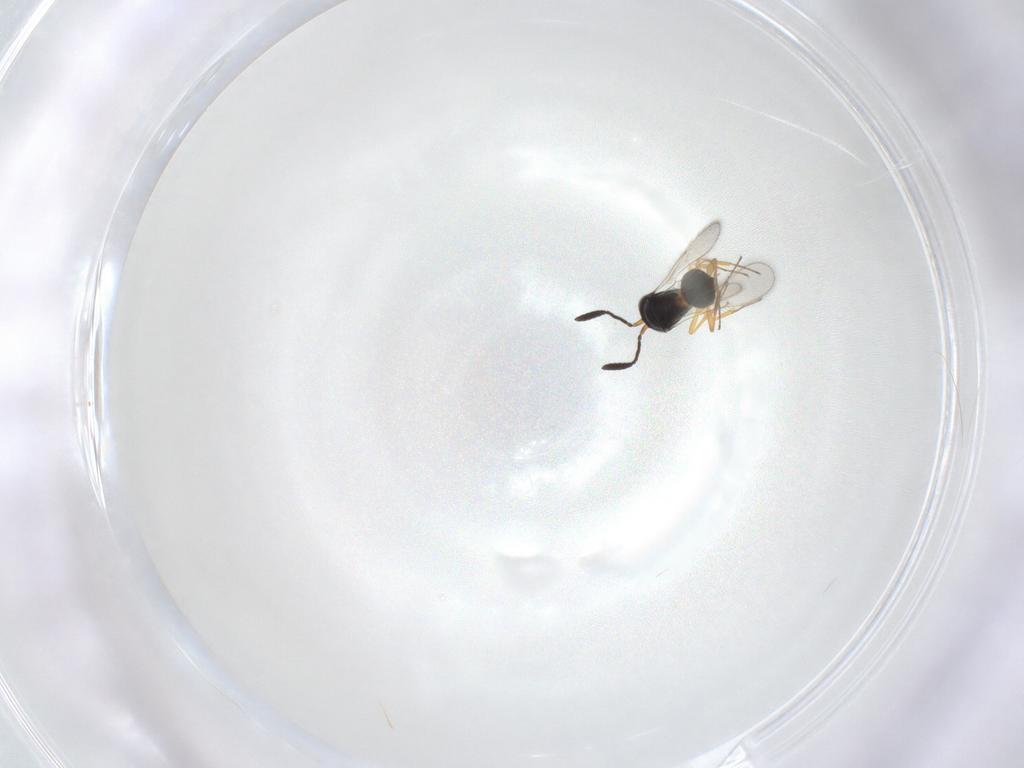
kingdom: Animalia
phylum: Arthropoda
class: Insecta
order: Hymenoptera
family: Scelionidae
